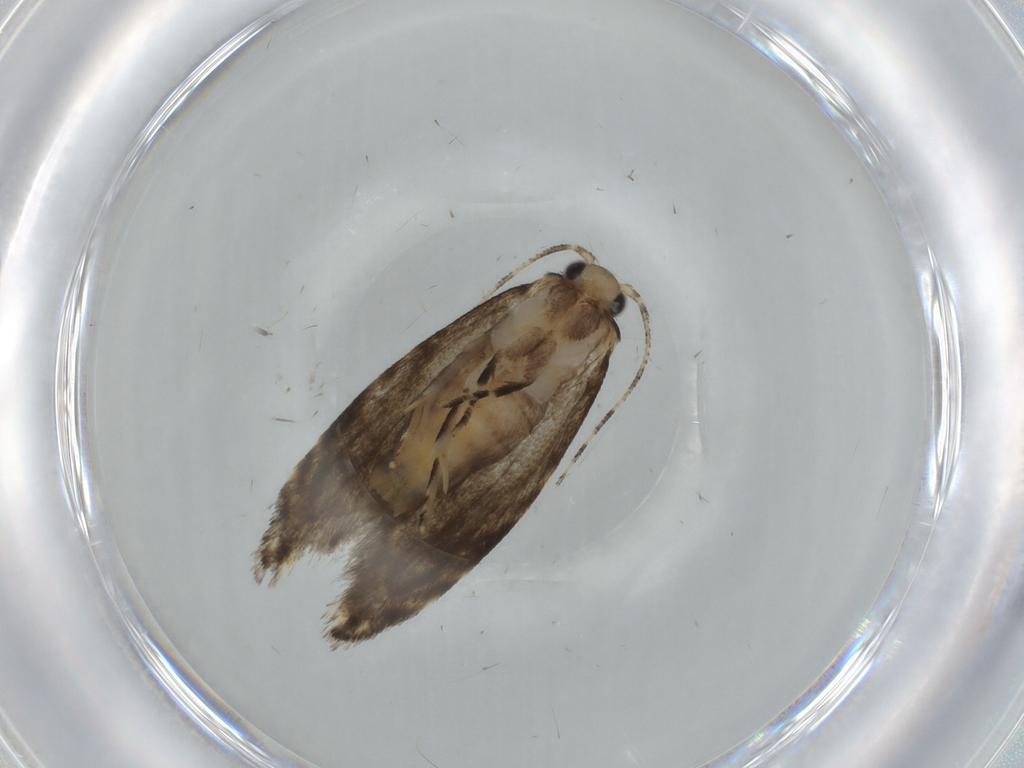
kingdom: Animalia
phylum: Arthropoda
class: Insecta
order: Lepidoptera
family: Tineidae
